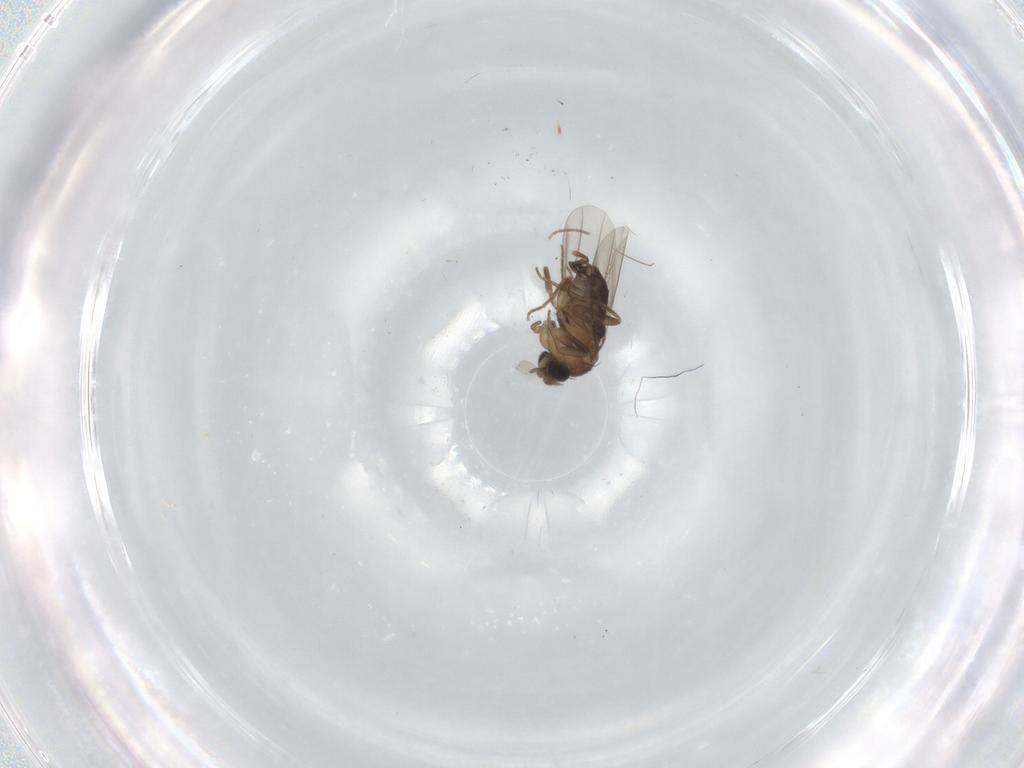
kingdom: Animalia
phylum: Arthropoda
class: Insecta
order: Diptera
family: Phoridae
